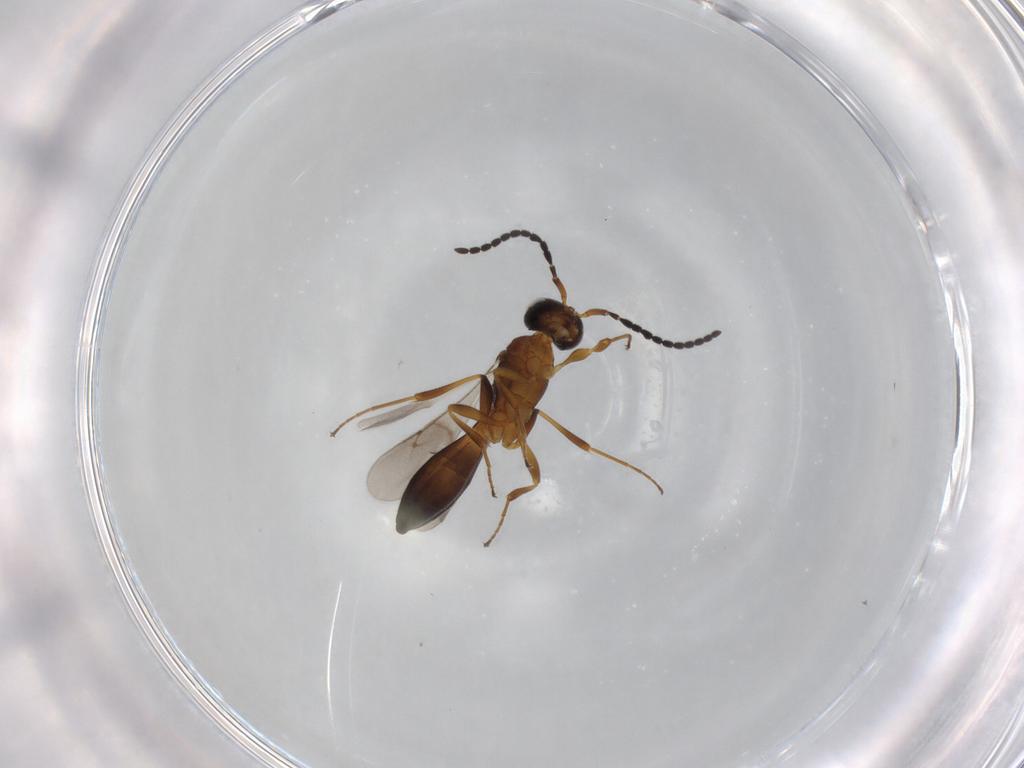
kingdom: Animalia
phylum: Arthropoda
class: Insecta
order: Hymenoptera
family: Scelionidae
